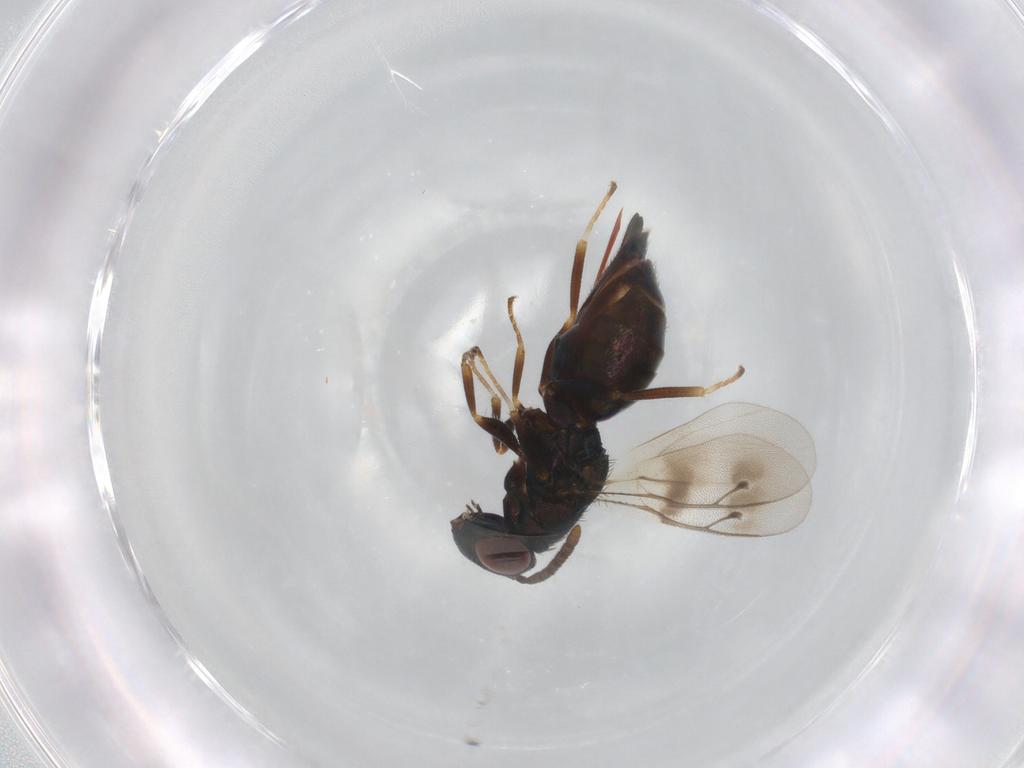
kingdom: Animalia
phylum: Arthropoda
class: Insecta
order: Hymenoptera
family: Pteromalidae
